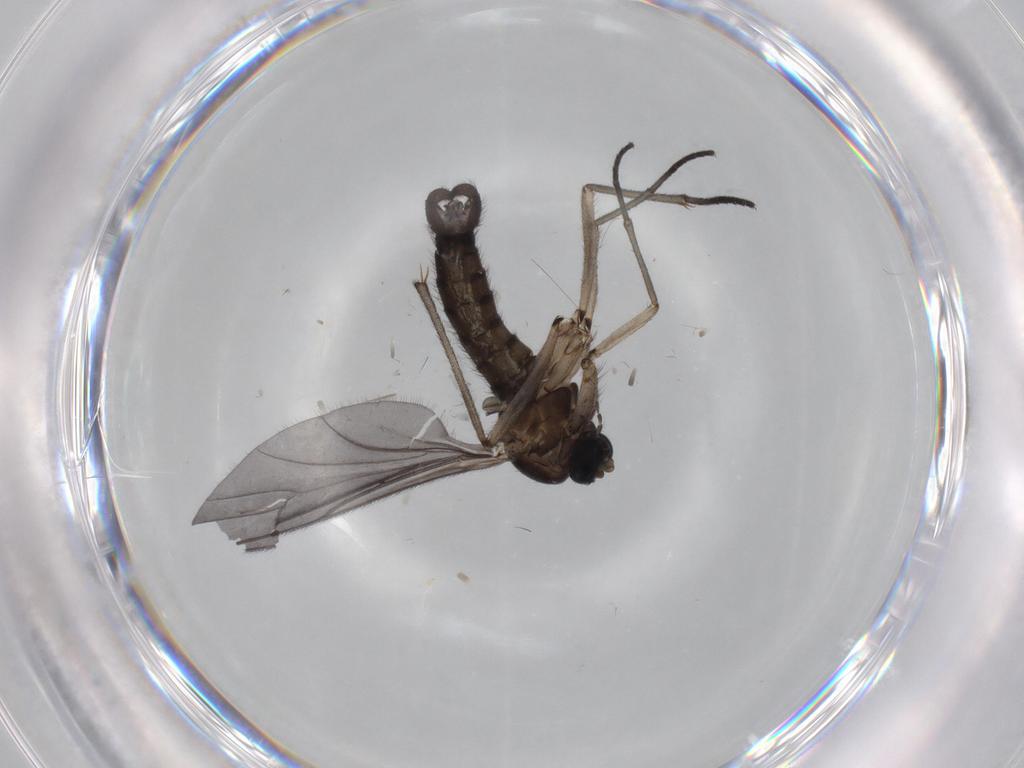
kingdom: Animalia
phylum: Arthropoda
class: Insecta
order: Diptera
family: Sciaridae
